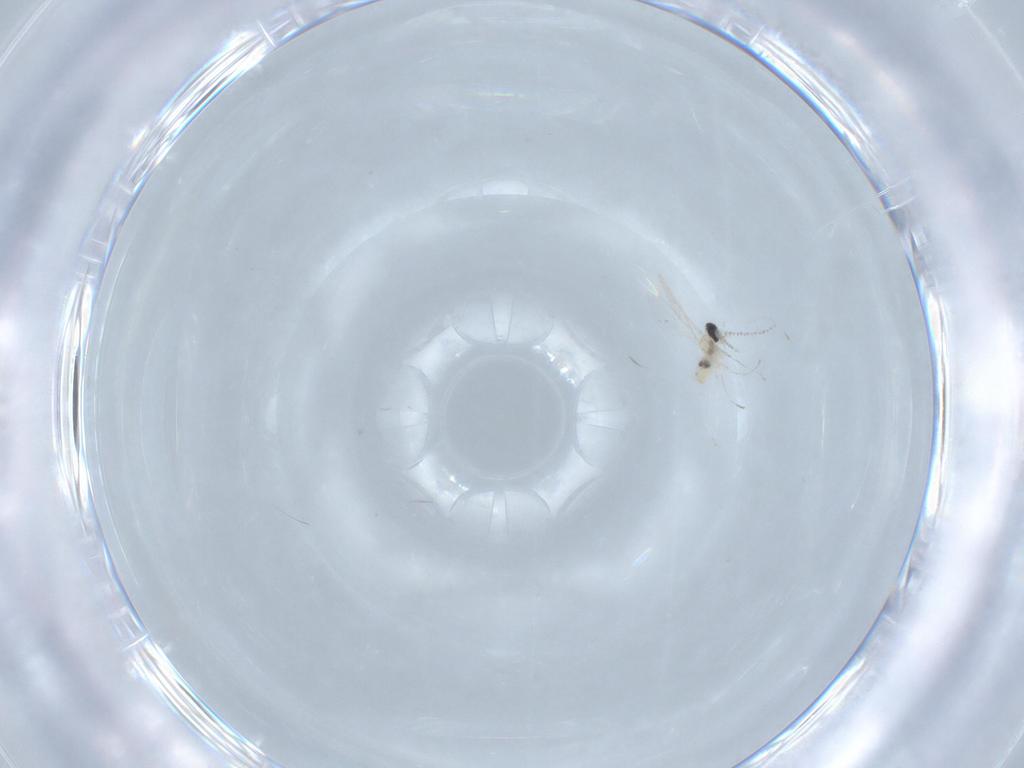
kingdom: Animalia
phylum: Arthropoda
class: Insecta
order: Diptera
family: Cecidomyiidae
